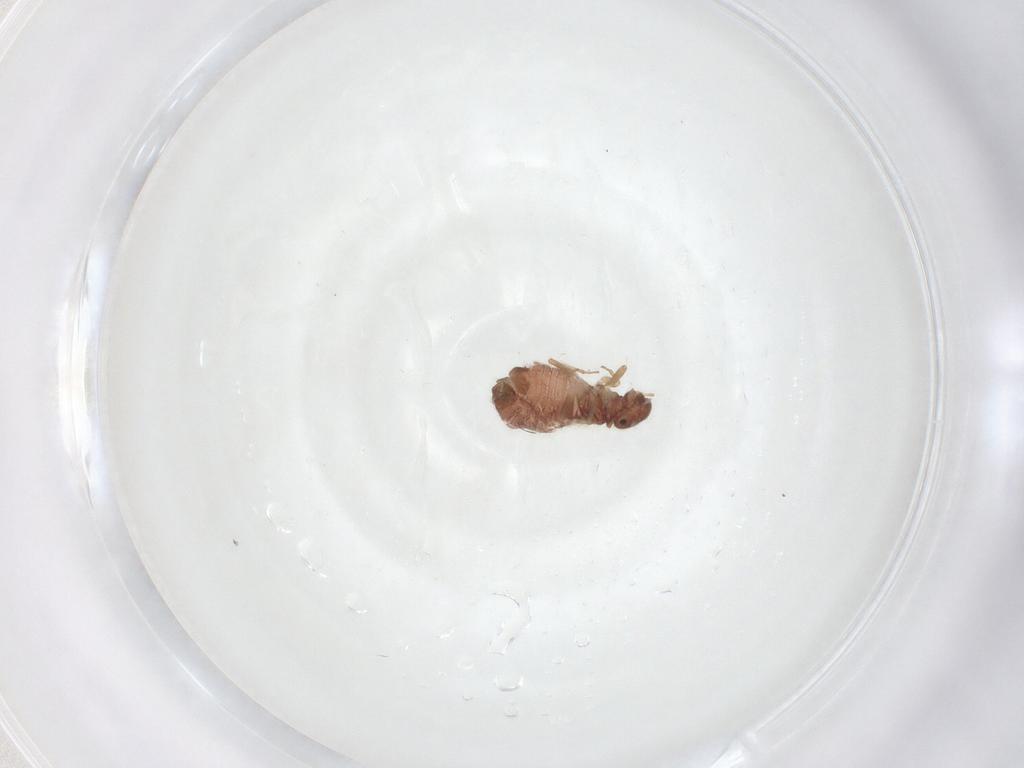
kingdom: Animalia
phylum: Arthropoda
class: Insecta
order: Psocodea
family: Archipsocidae
